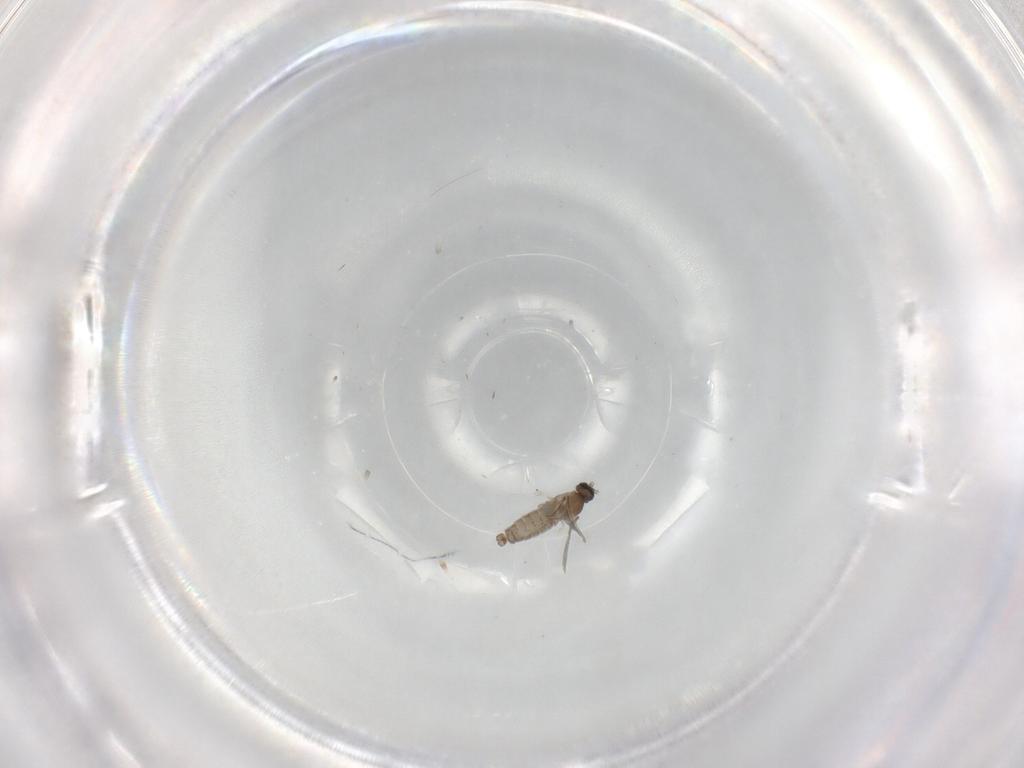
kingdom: Animalia
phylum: Arthropoda
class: Insecta
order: Diptera
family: Cecidomyiidae
